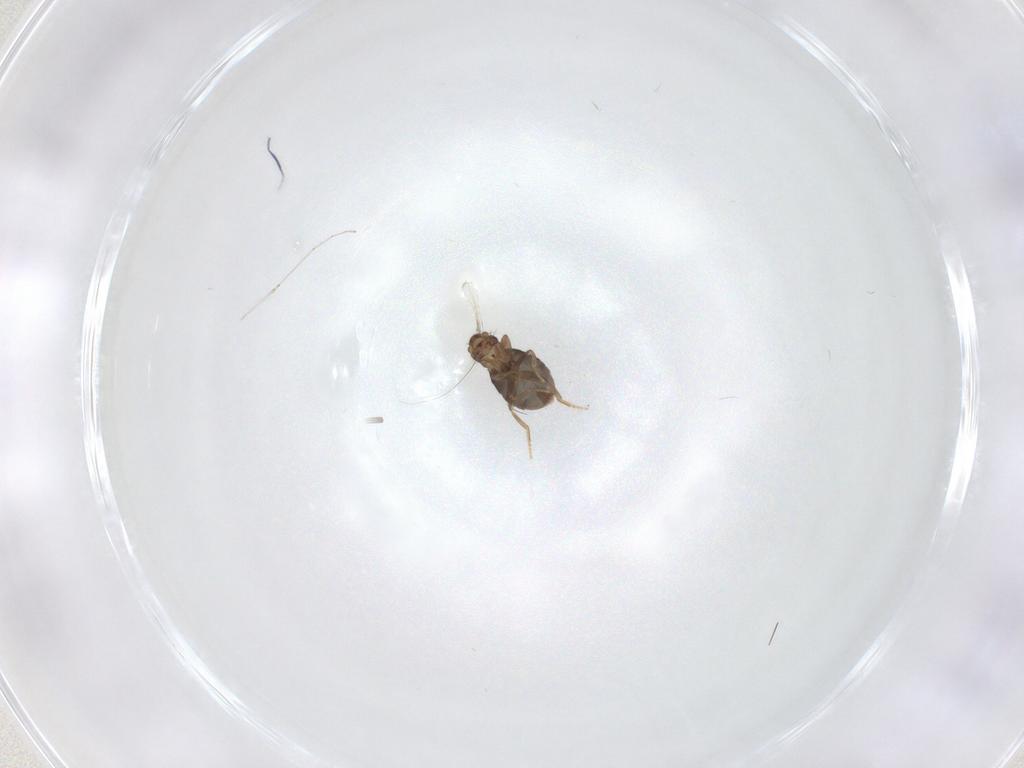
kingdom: Animalia
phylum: Arthropoda
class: Insecta
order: Diptera
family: Cecidomyiidae
